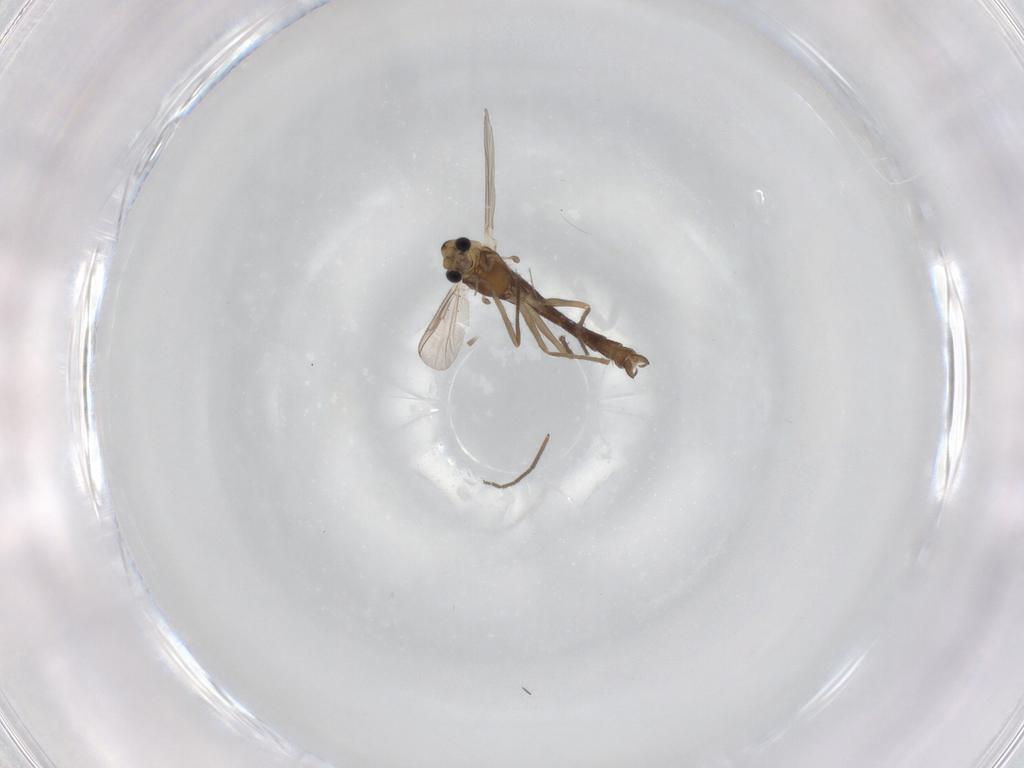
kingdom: Animalia
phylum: Arthropoda
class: Insecta
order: Diptera
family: Chironomidae
